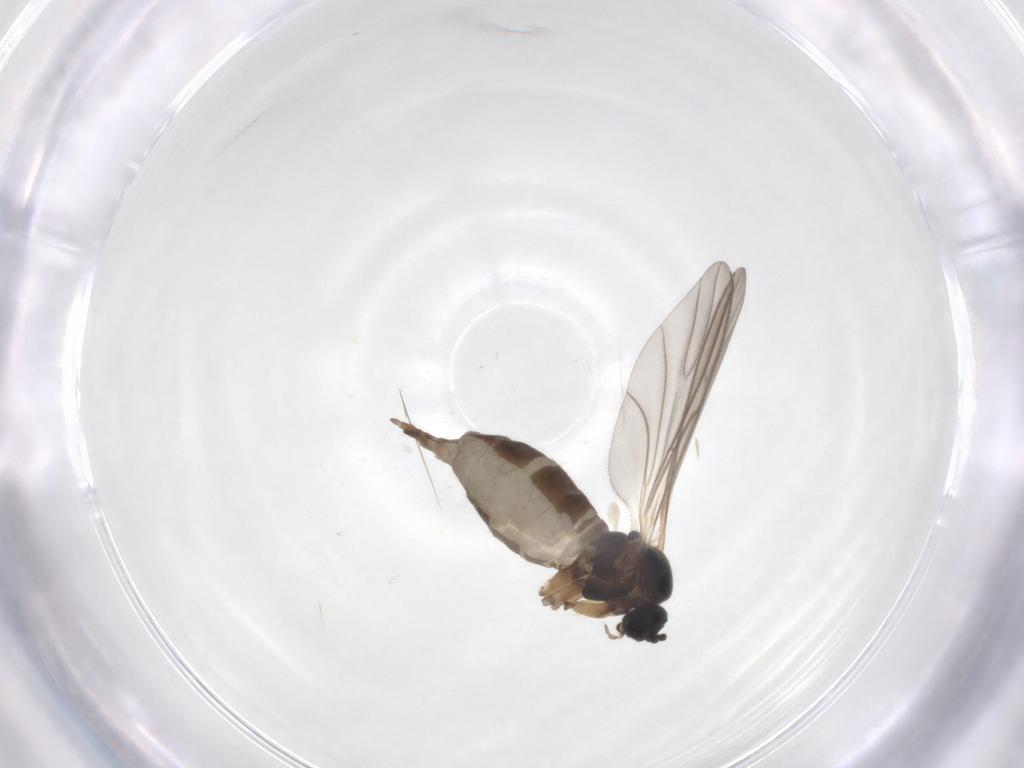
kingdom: Animalia
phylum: Arthropoda
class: Insecta
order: Diptera
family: Sciaridae
